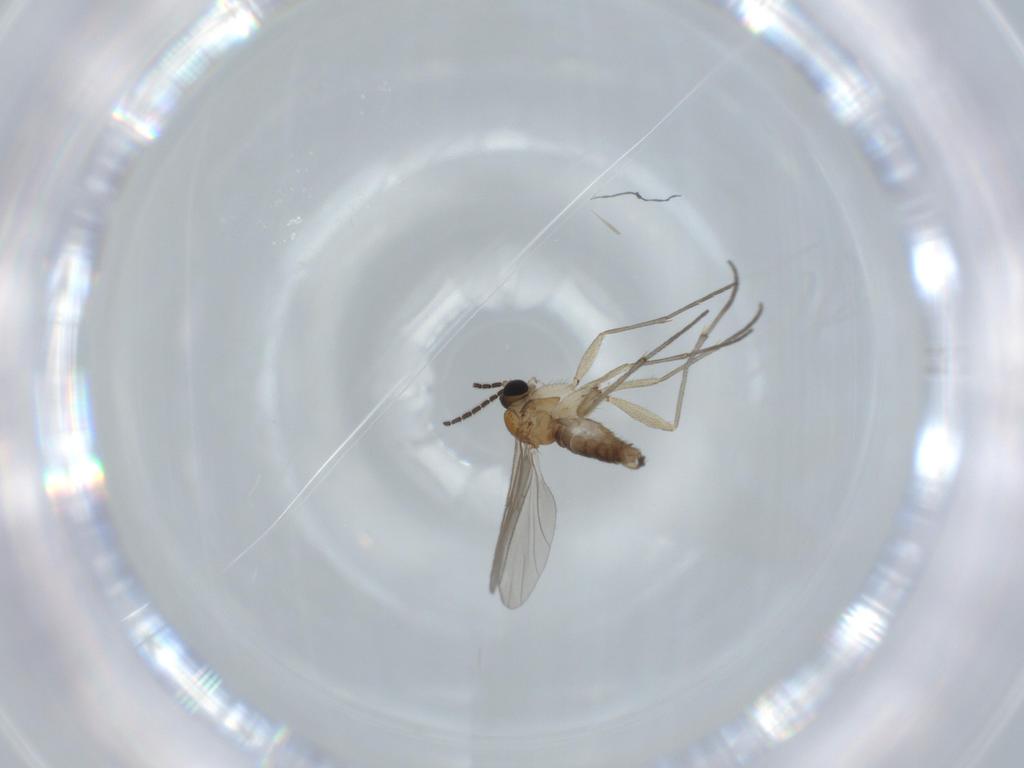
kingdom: Animalia
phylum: Arthropoda
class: Insecta
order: Diptera
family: Sciaridae
